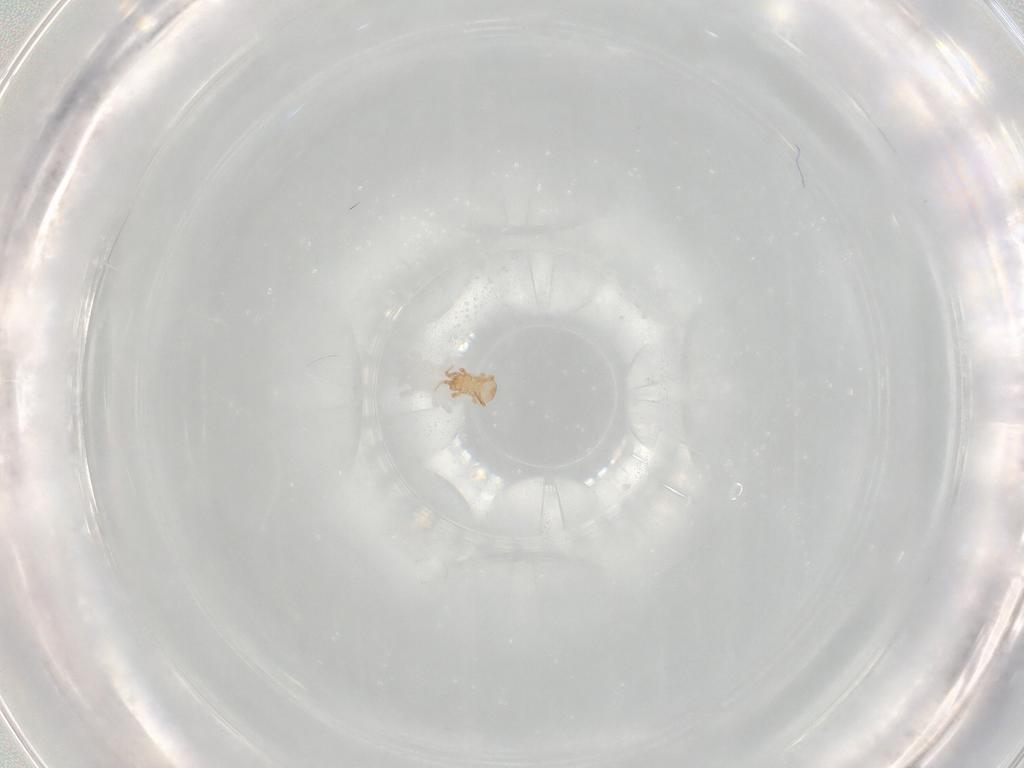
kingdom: Animalia
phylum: Arthropoda
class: Arachnida
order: Mesostigmata
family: Ascidae
